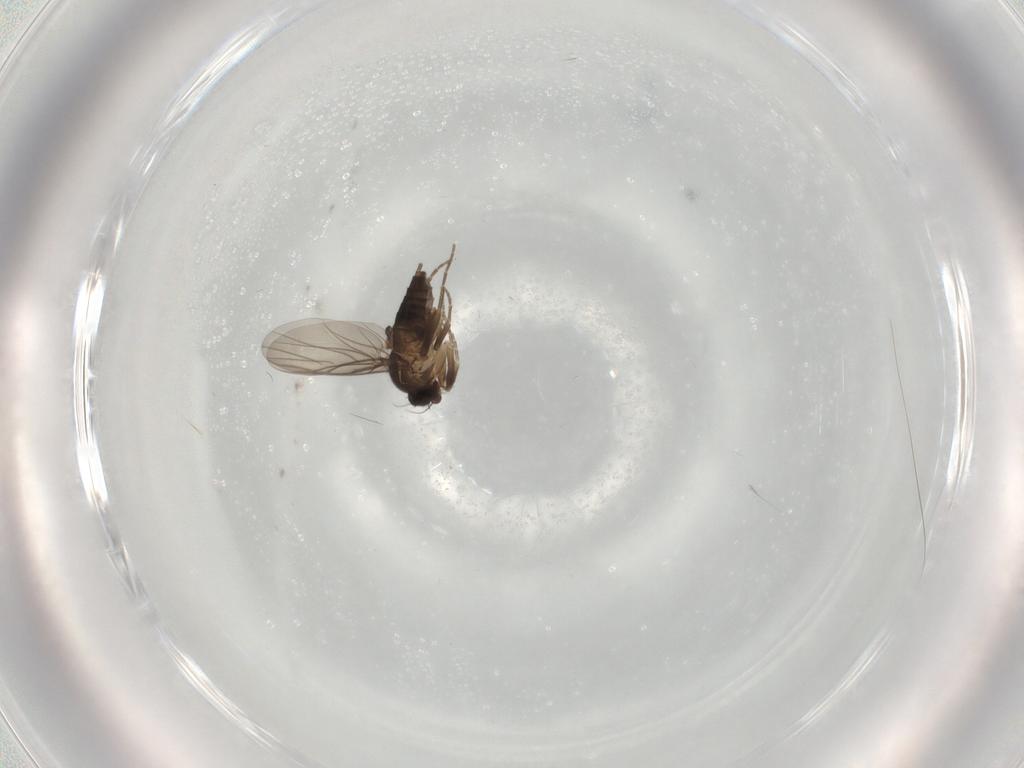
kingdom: Animalia
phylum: Arthropoda
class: Insecta
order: Diptera
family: Phoridae
